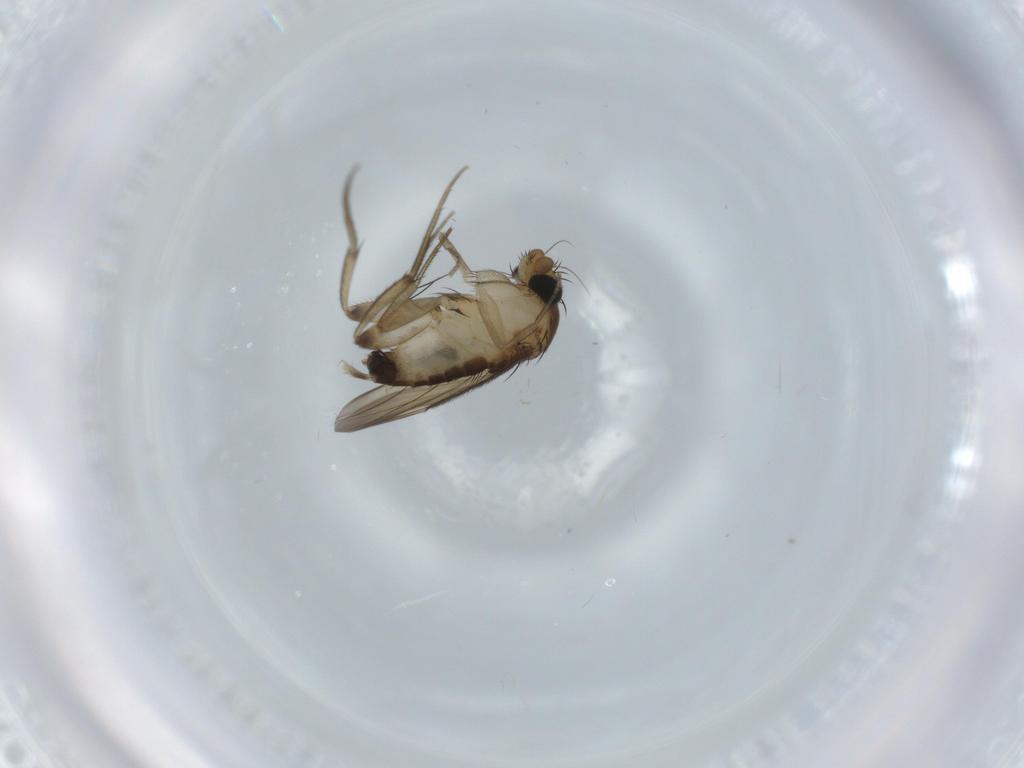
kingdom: Animalia
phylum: Arthropoda
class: Insecta
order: Diptera
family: Phoridae
